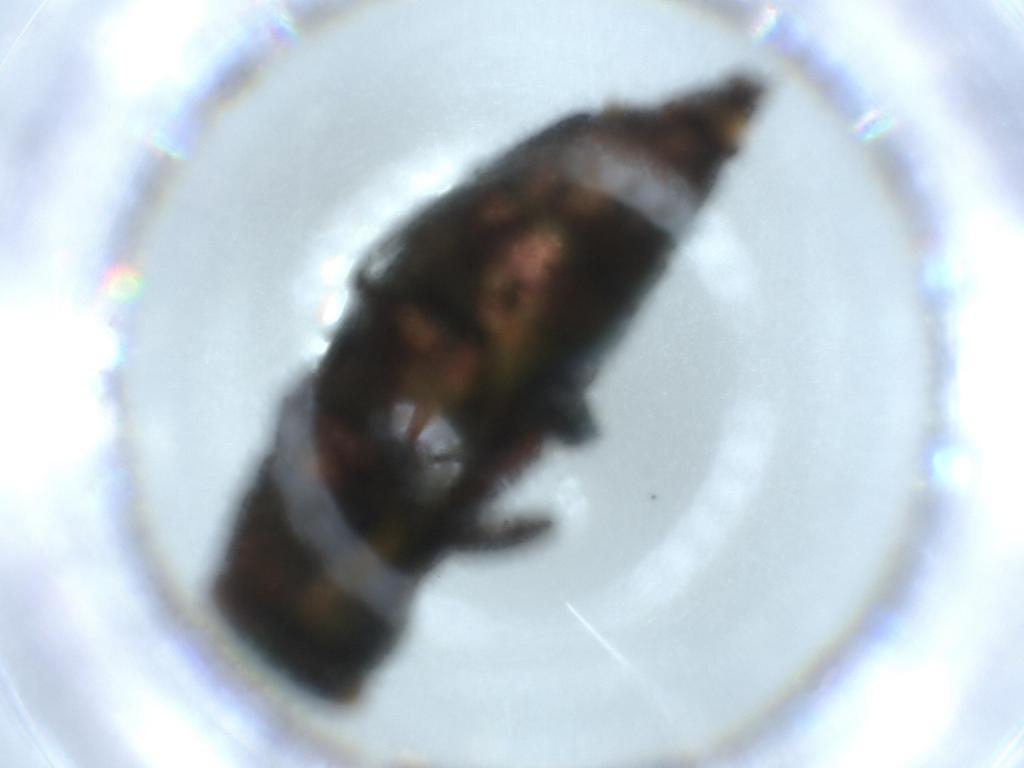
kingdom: Animalia
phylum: Arthropoda
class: Insecta
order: Coleoptera
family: Buprestidae
